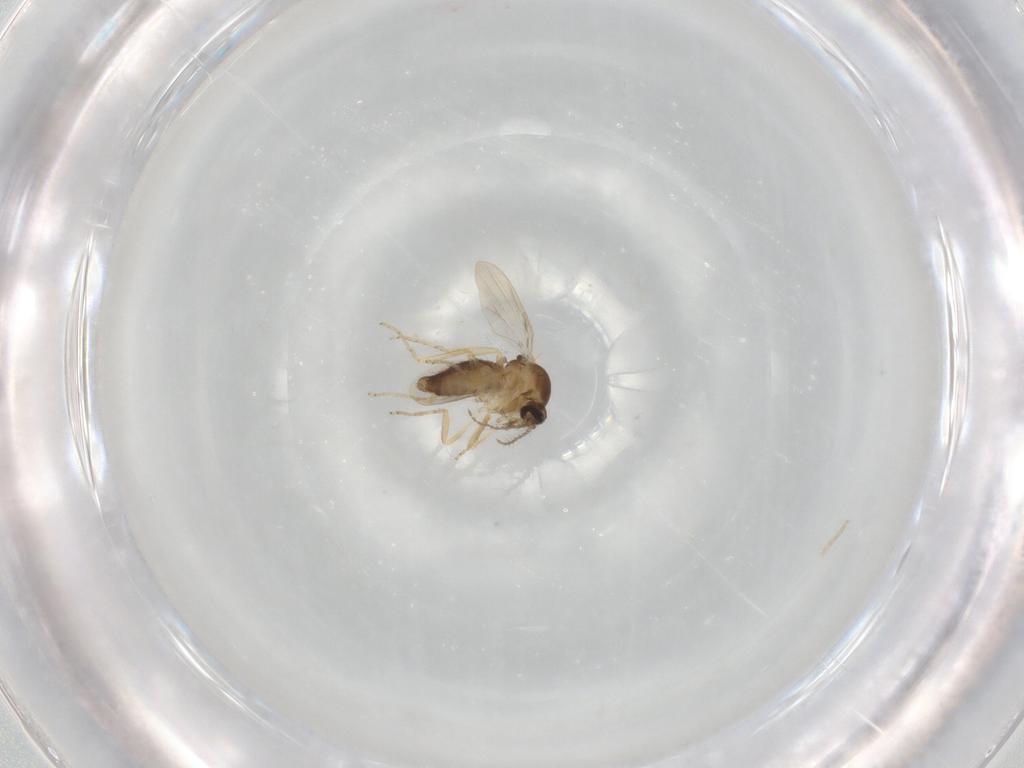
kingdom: Animalia
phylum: Arthropoda
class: Insecta
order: Diptera
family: Ceratopogonidae
